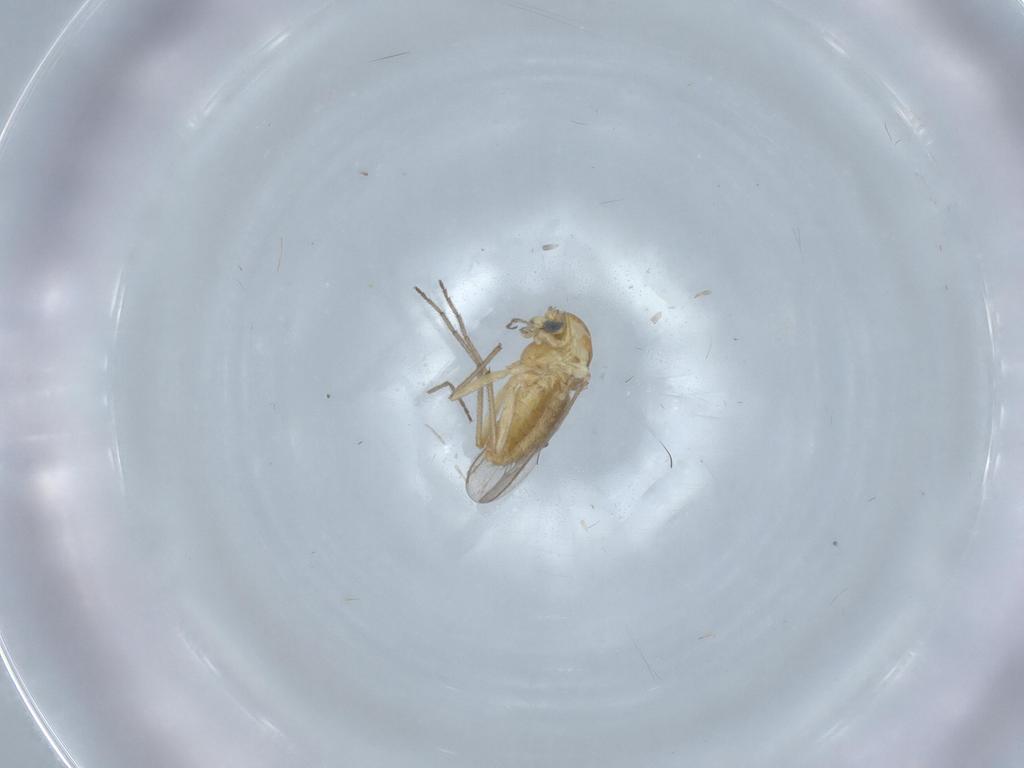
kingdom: Animalia
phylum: Arthropoda
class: Insecta
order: Diptera
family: Chironomidae
